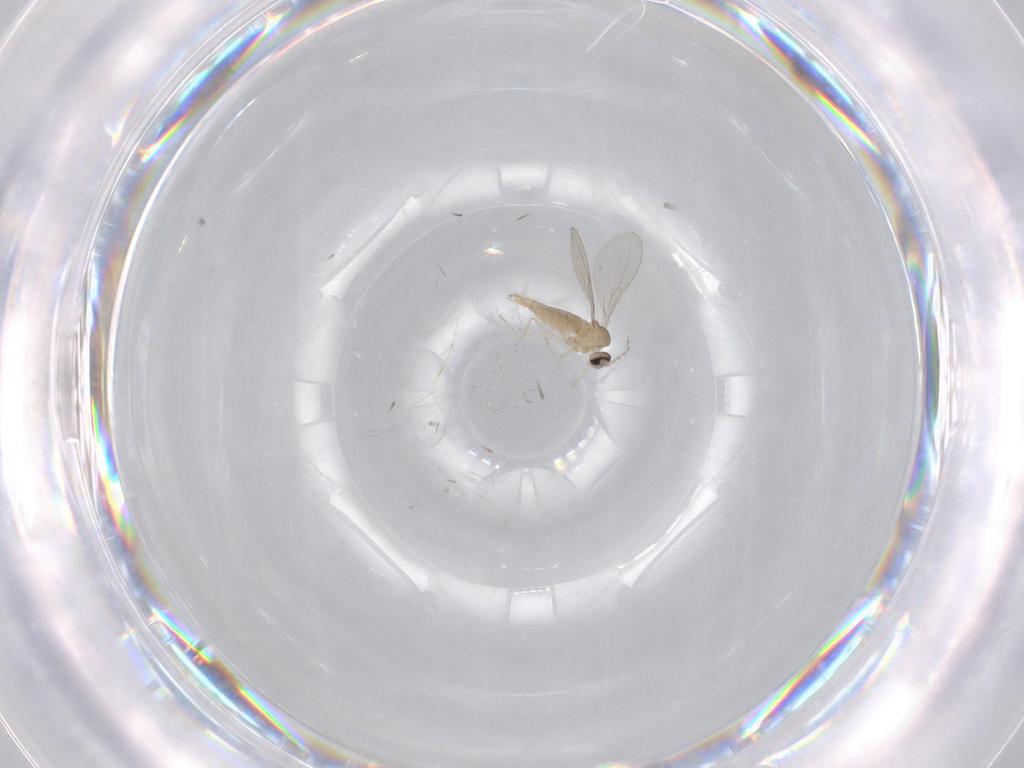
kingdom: Animalia
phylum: Arthropoda
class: Insecta
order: Diptera
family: Cecidomyiidae
